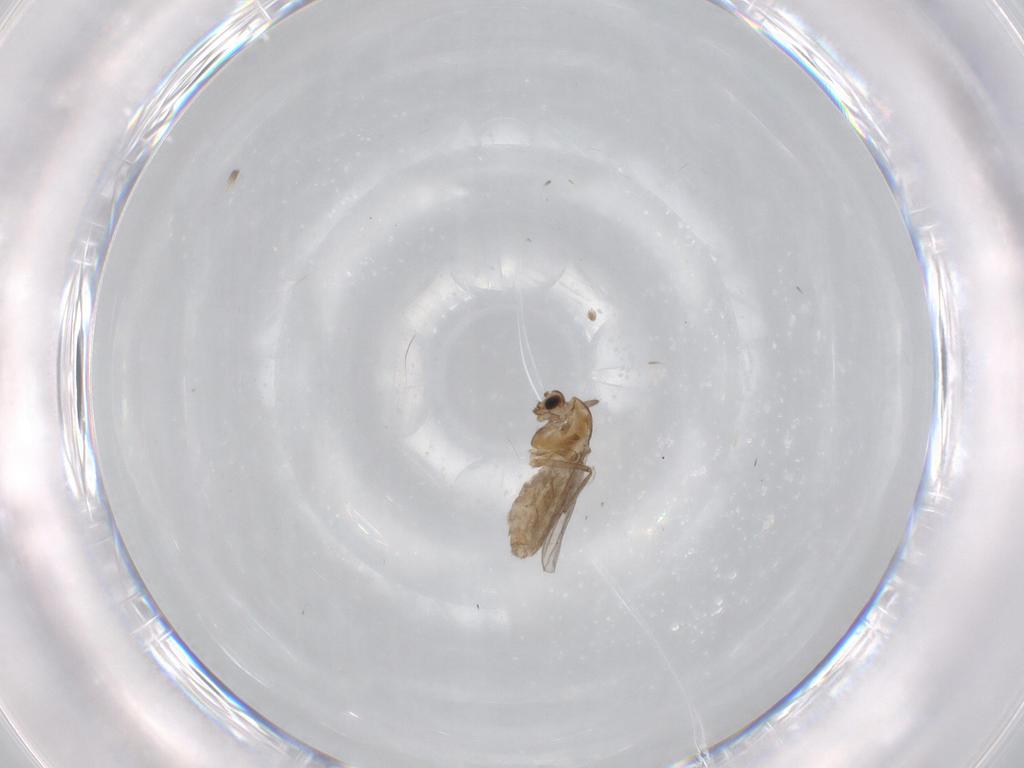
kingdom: Animalia
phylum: Arthropoda
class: Insecta
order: Diptera
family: Chironomidae
